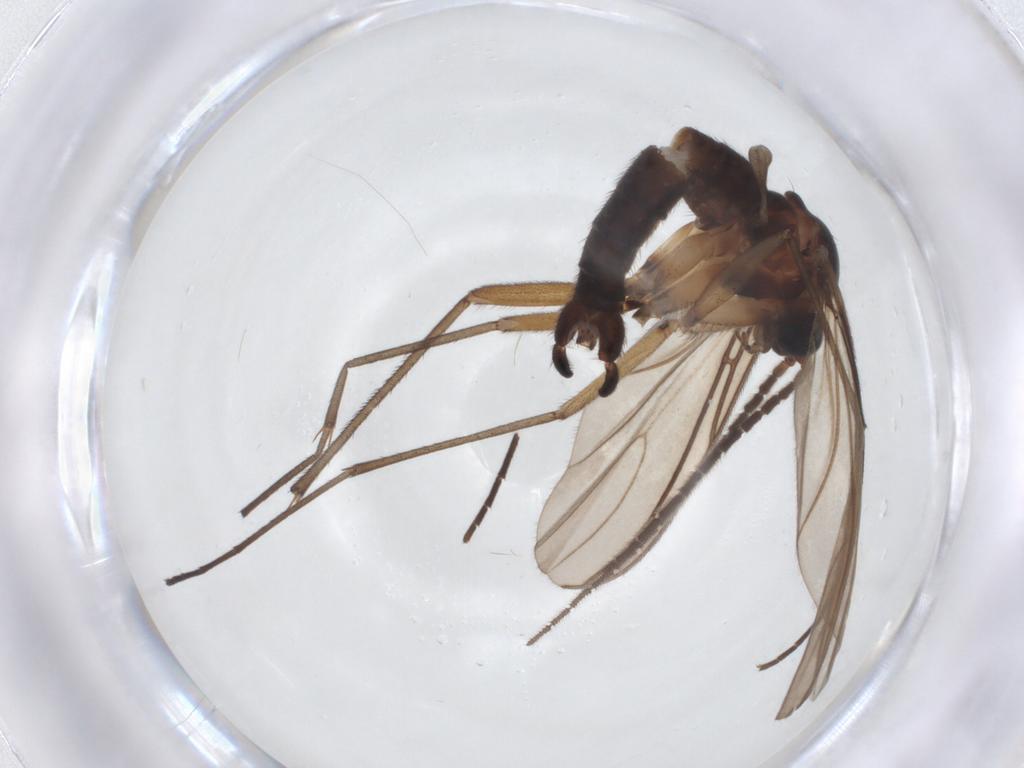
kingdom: Animalia
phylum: Arthropoda
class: Insecta
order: Diptera
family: Sciaridae
